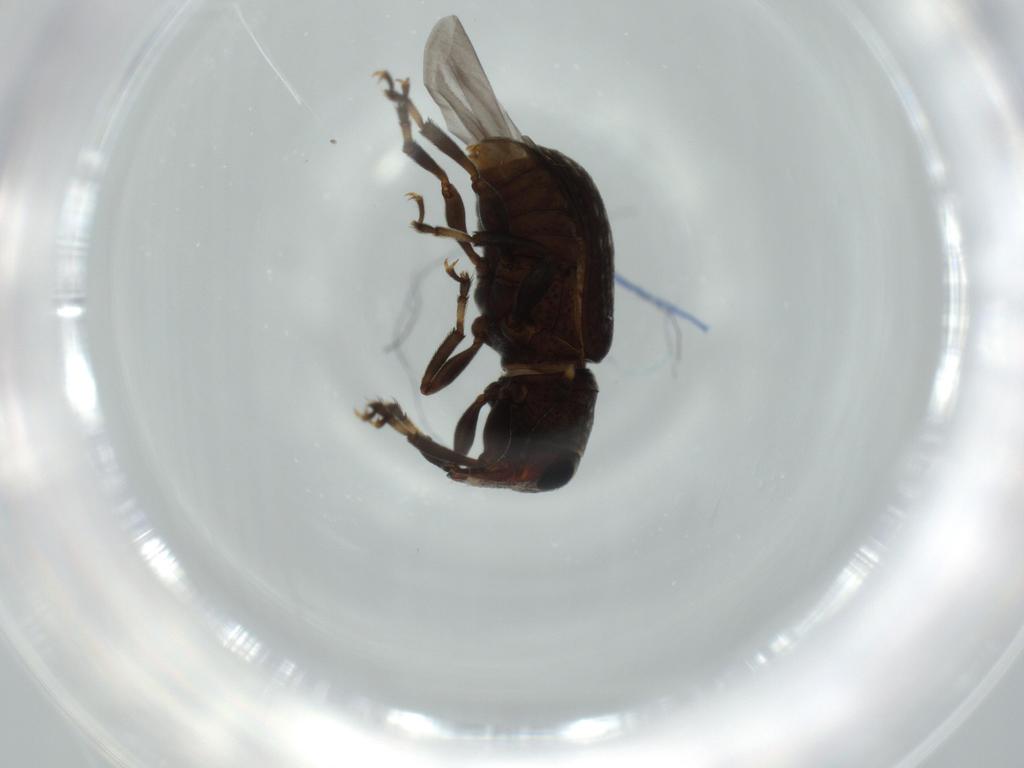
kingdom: Animalia
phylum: Arthropoda
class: Insecta
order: Coleoptera
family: Anthribidae
